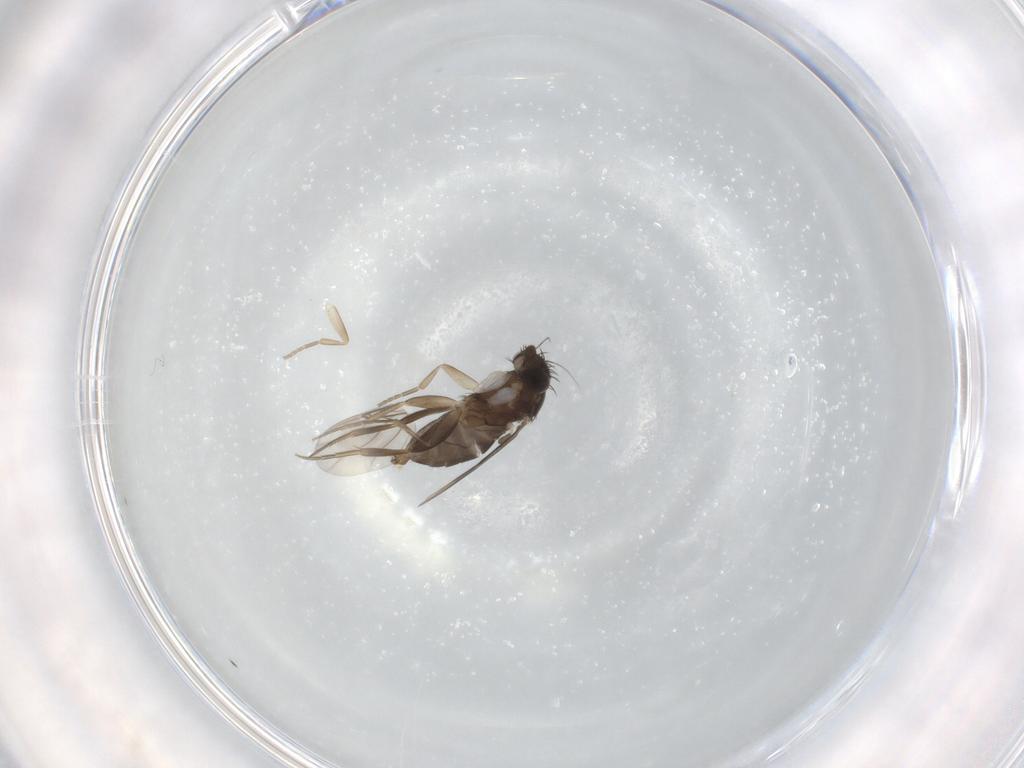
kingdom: Animalia
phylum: Arthropoda
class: Insecta
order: Diptera
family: Phoridae
